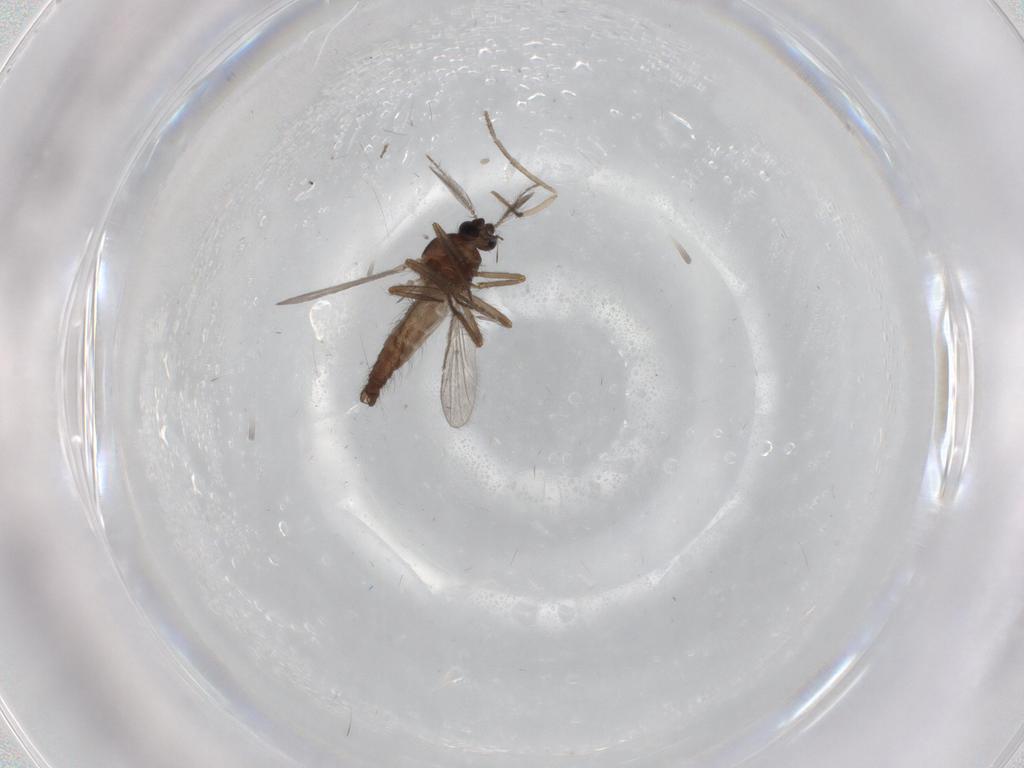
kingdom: Animalia
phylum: Arthropoda
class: Insecta
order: Diptera
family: Ceratopogonidae
